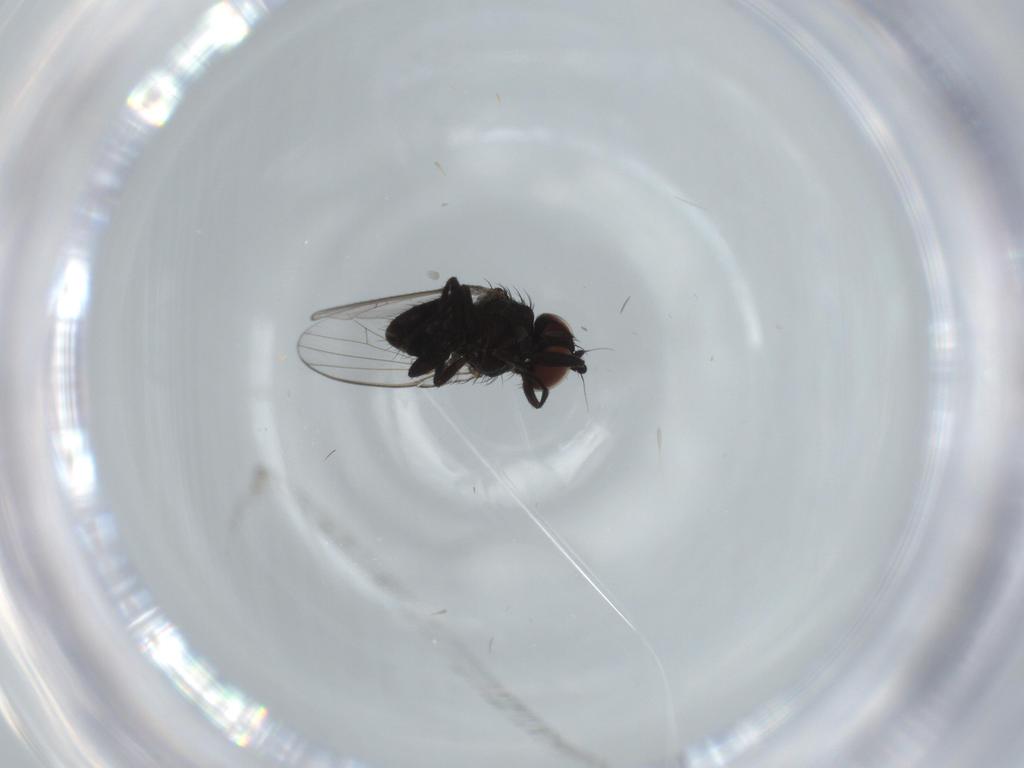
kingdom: Animalia
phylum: Arthropoda
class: Insecta
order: Diptera
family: Milichiidae
